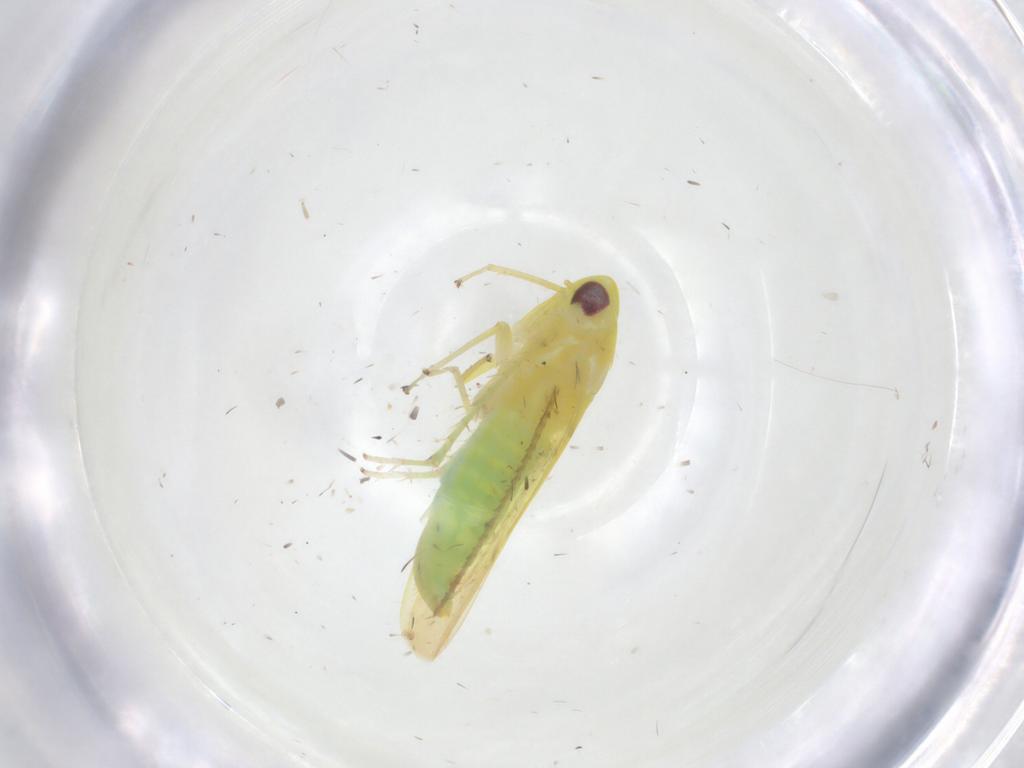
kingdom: Animalia
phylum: Arthropoda
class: Insecta
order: Hemiptera
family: Cicadellidae
